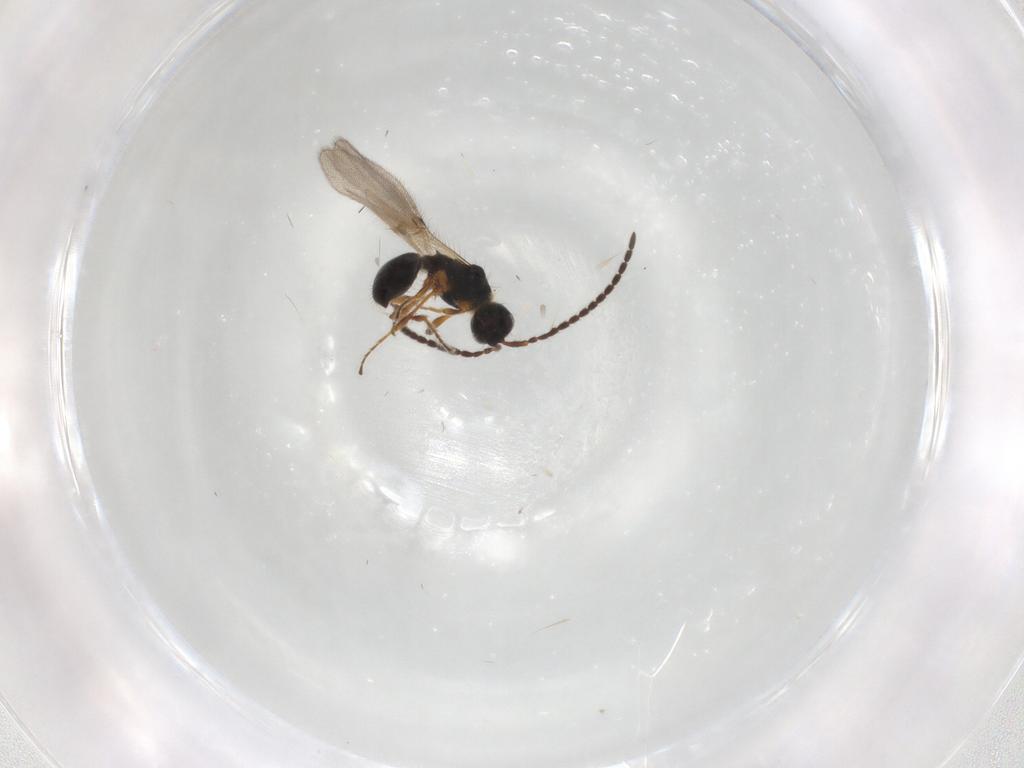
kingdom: Animalia
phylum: Arthropoda
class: Insecta
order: Hymenoptera
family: Diapriidae
